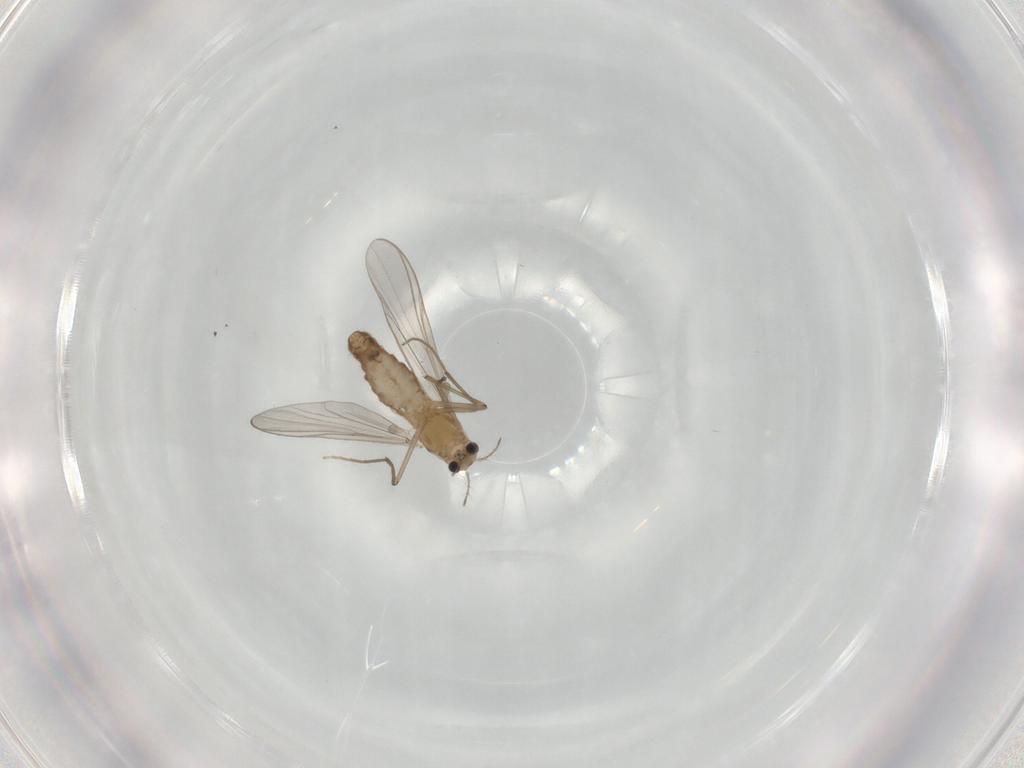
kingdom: Animalia
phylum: Arthropoda
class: Insecta
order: Diptera
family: Chironomidae
